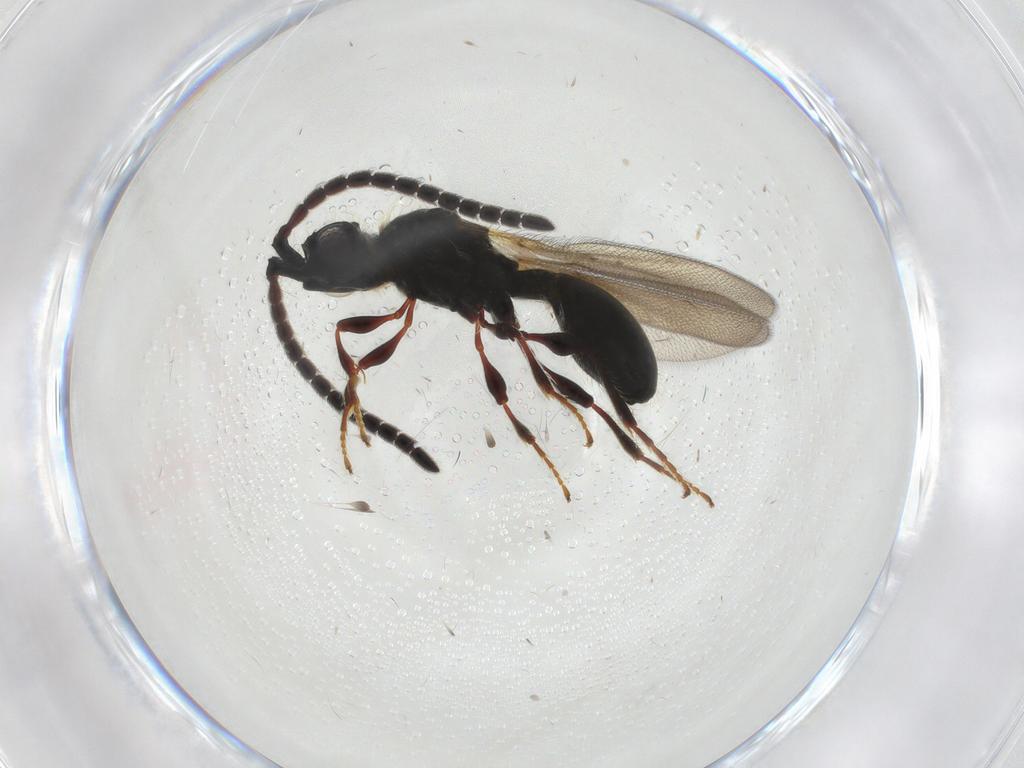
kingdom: Animalia
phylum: Arthropoda
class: Insecta
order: Hymenoptera
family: Diapriidae
